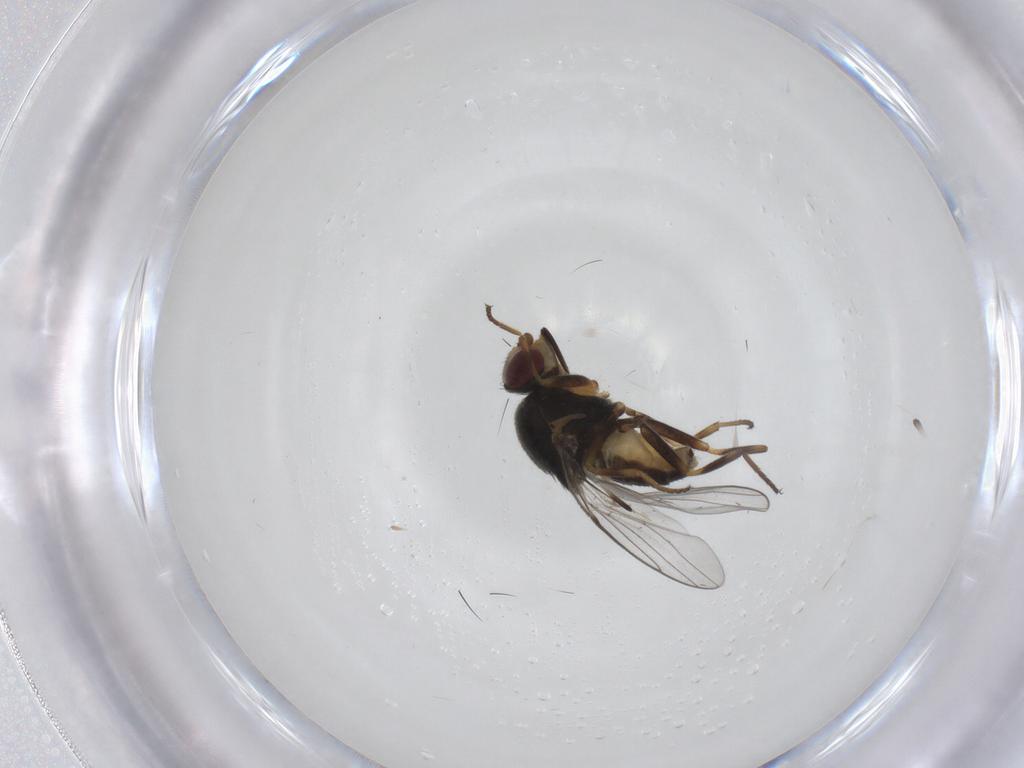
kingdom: Animalia
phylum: Arthropoda
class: Insecta
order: Diptera
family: Chloropidae
